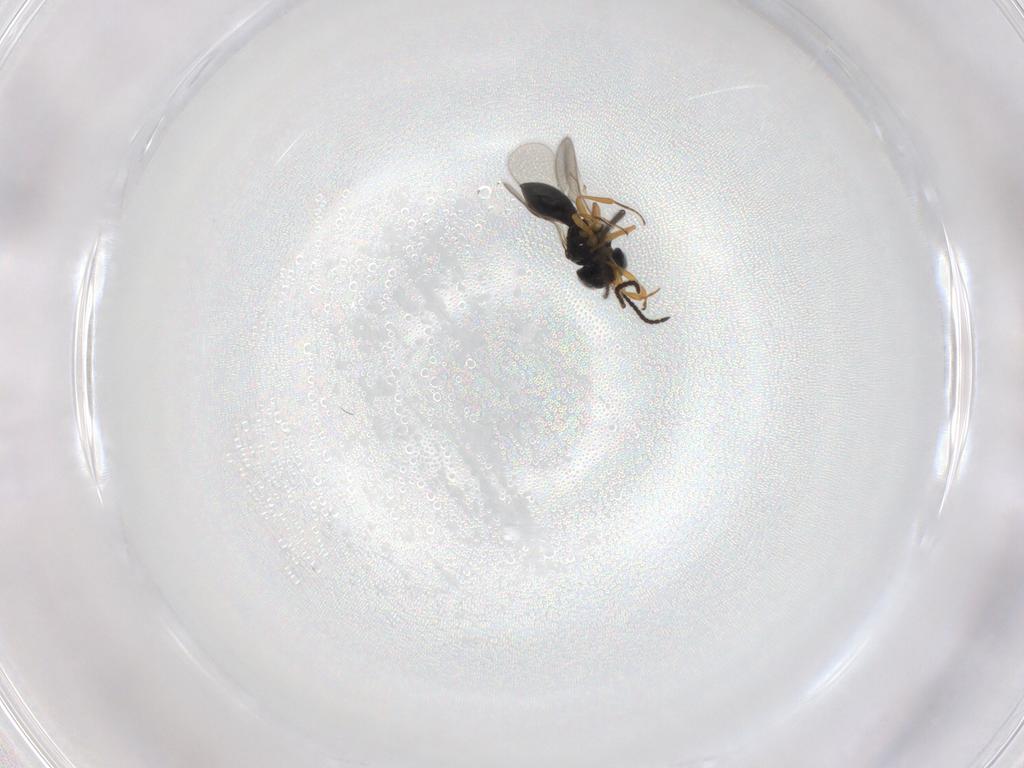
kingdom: Animalia
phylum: Arthropoda
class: Insecta
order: Hymenoptera
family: Scelionidae
